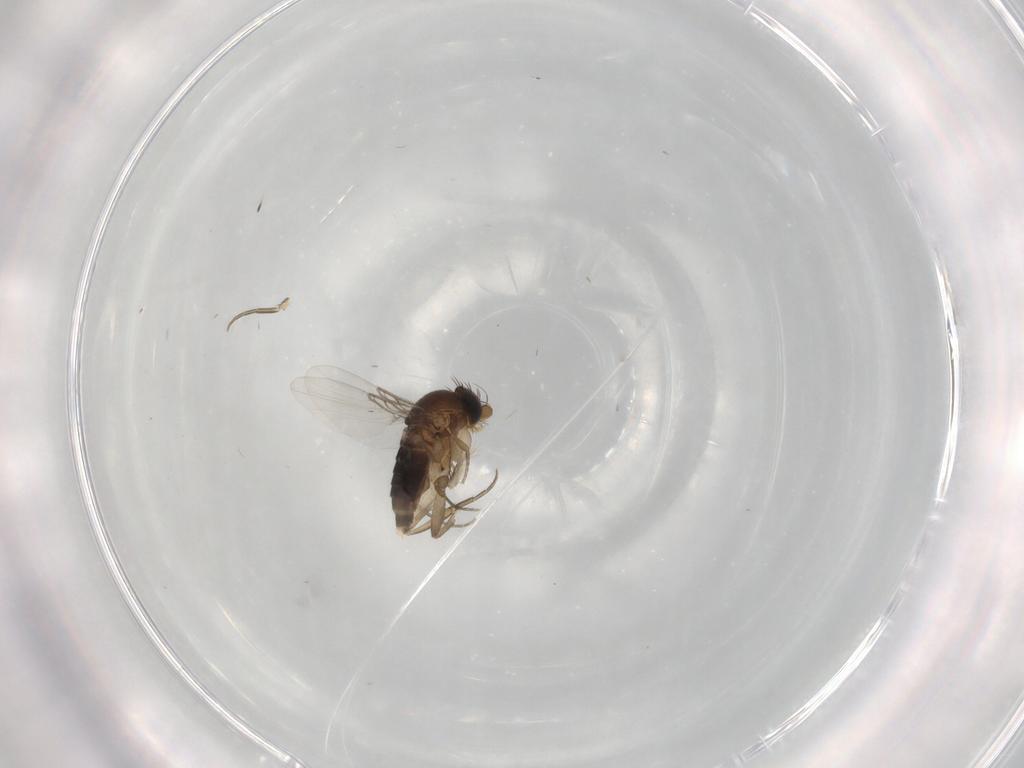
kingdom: Animalia
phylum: Arthropoda
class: Insecta
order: Diptera
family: Phoridae
